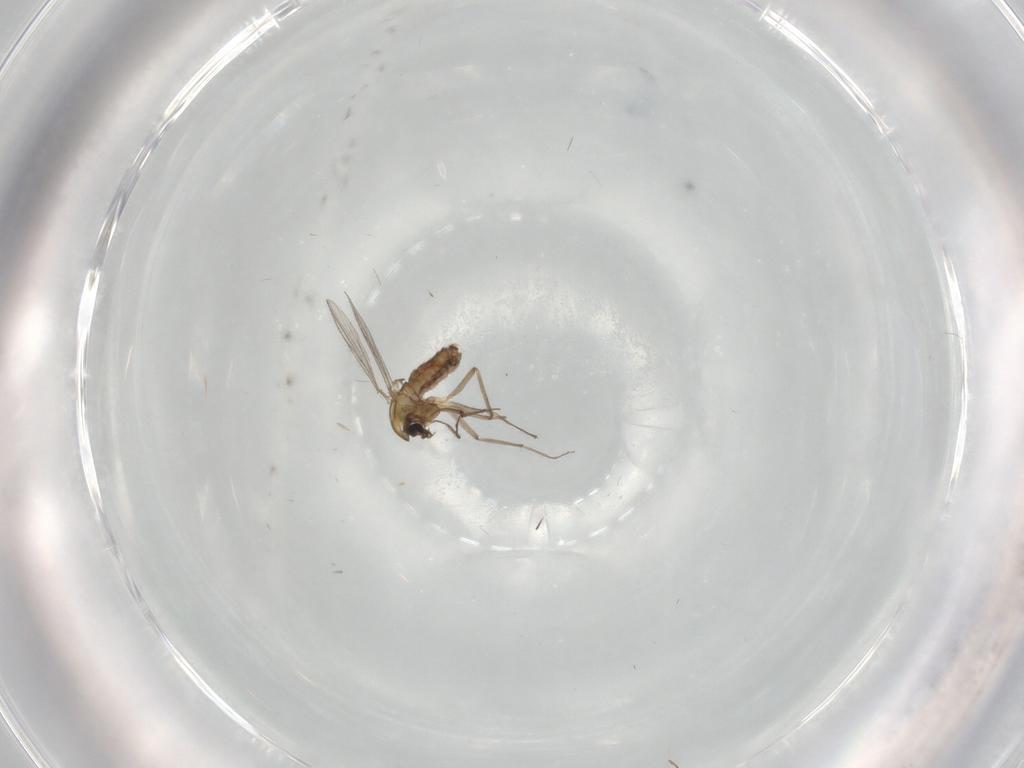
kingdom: Animalia
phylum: Arthropoda
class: Insecta
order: Diptera
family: Chironomidae
